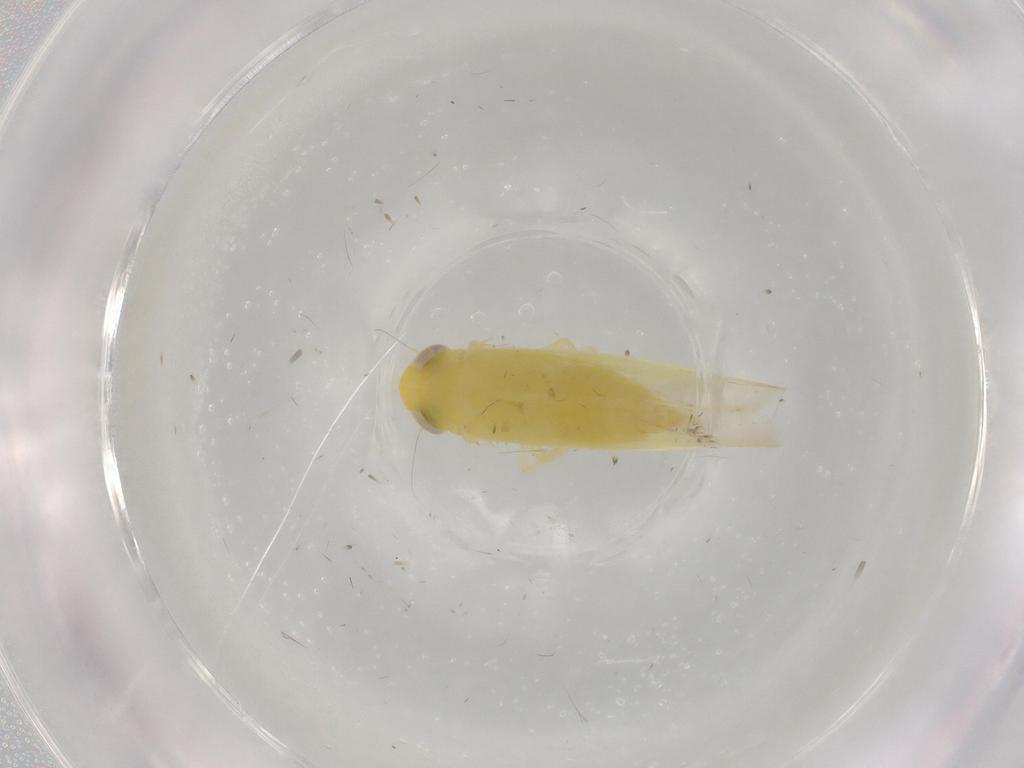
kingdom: Animalia
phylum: Arthropoda
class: Insecta
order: Hemiptera
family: Cicadellidae
